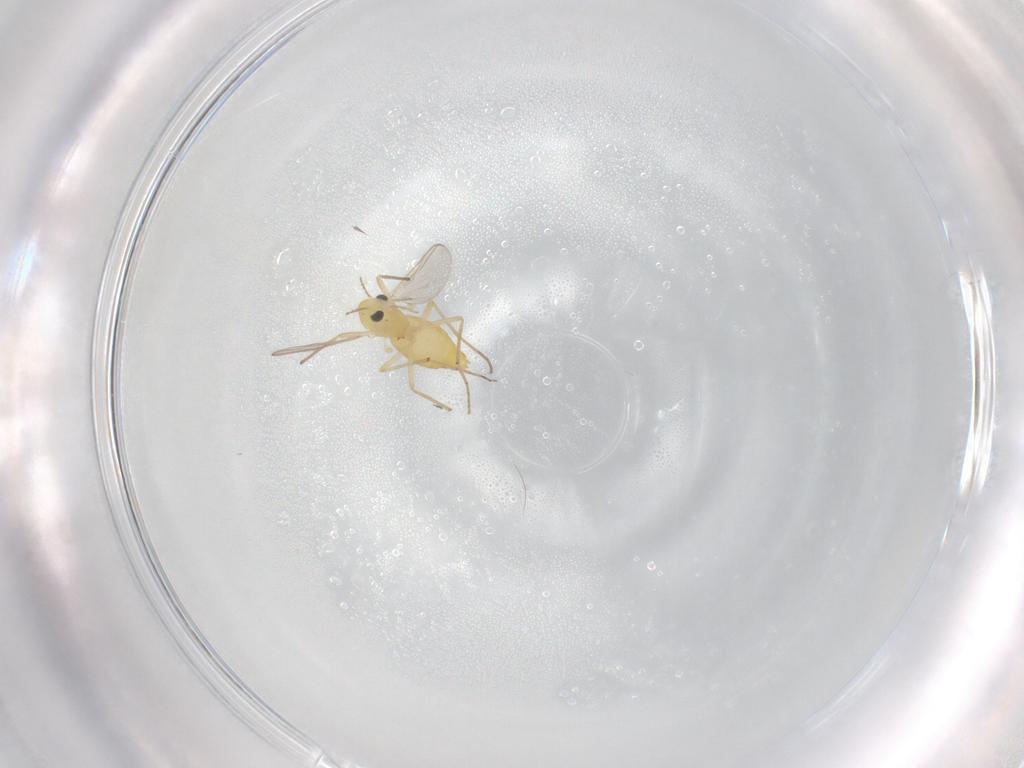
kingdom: Animalia
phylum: Arthropoda
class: Insecta
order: Diptera
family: Chironomidae
